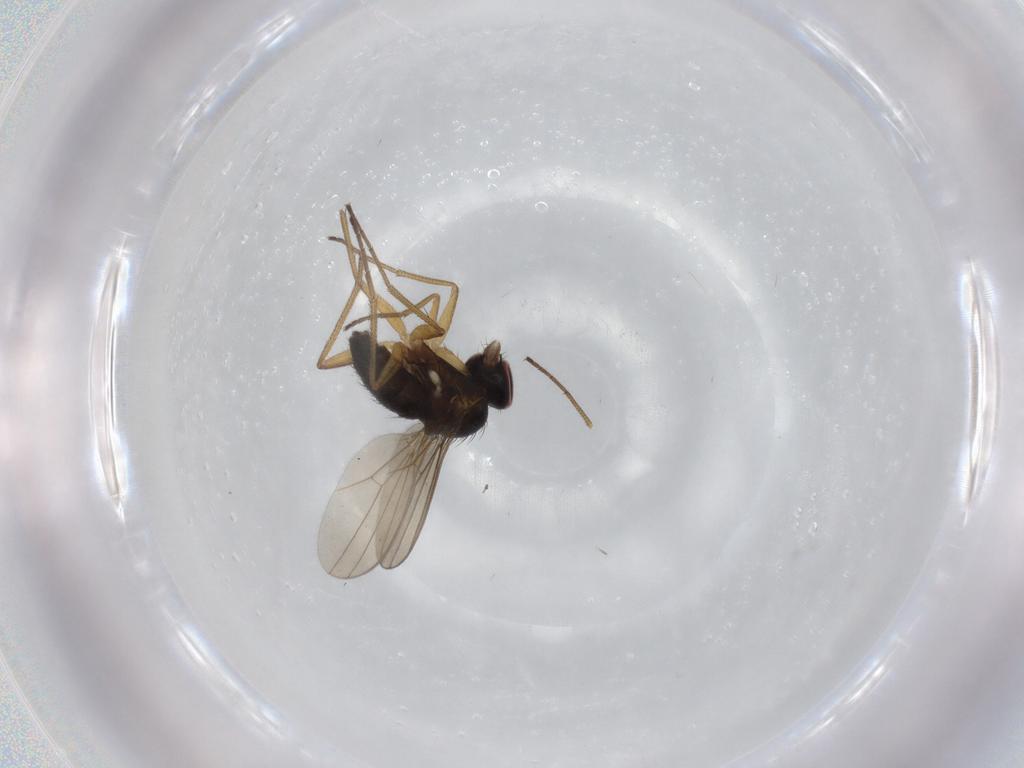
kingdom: Animalia
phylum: Arthropoda
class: Insecta
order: Diptera
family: Dolichopodidae
